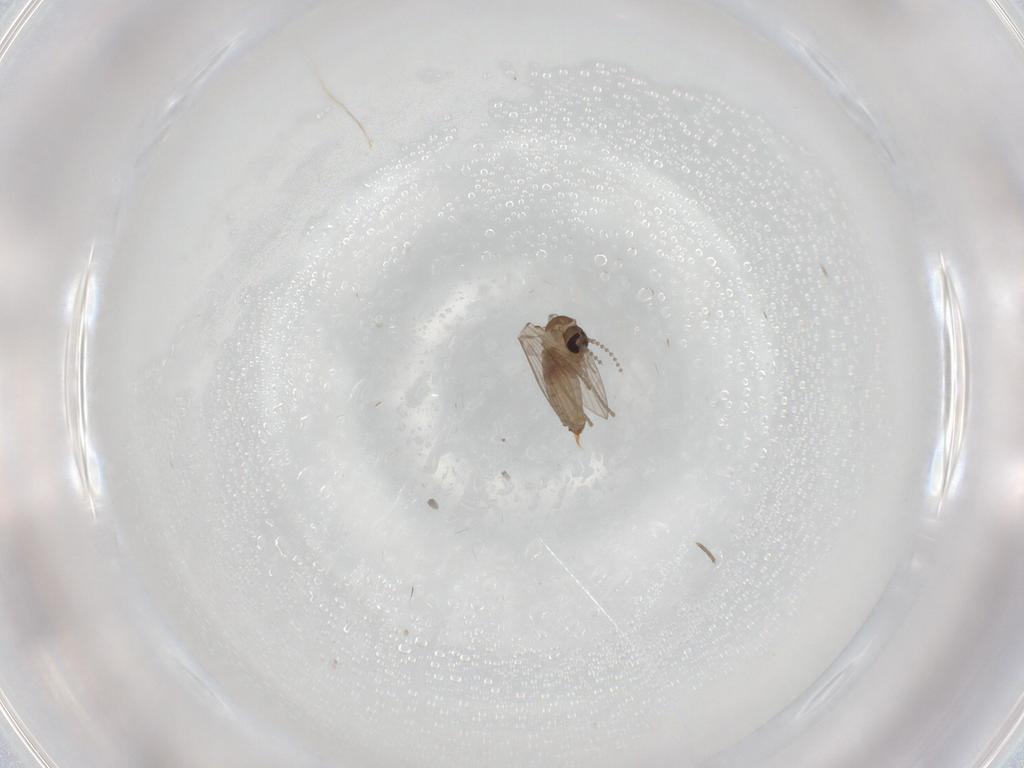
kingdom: Animalia
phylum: Arthropoda
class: Insecta
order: Diptera
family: Psychodidae
